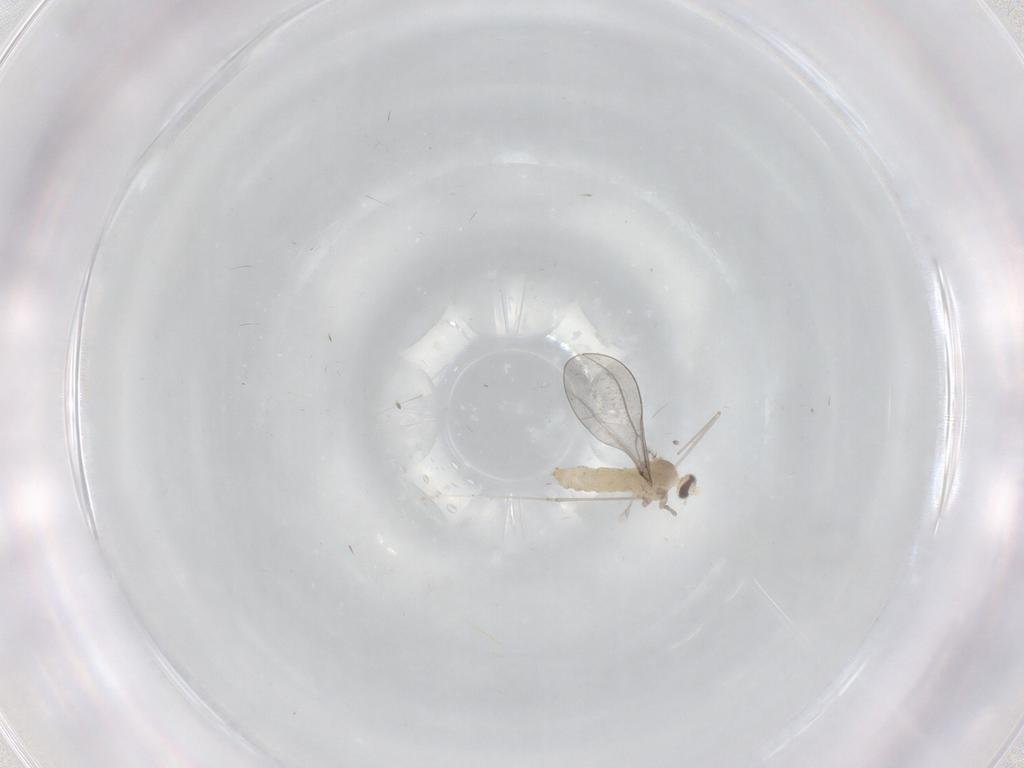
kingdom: Animalia
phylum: Arthropoda
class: Insecta
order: Diptera
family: Cecidomyiidae
